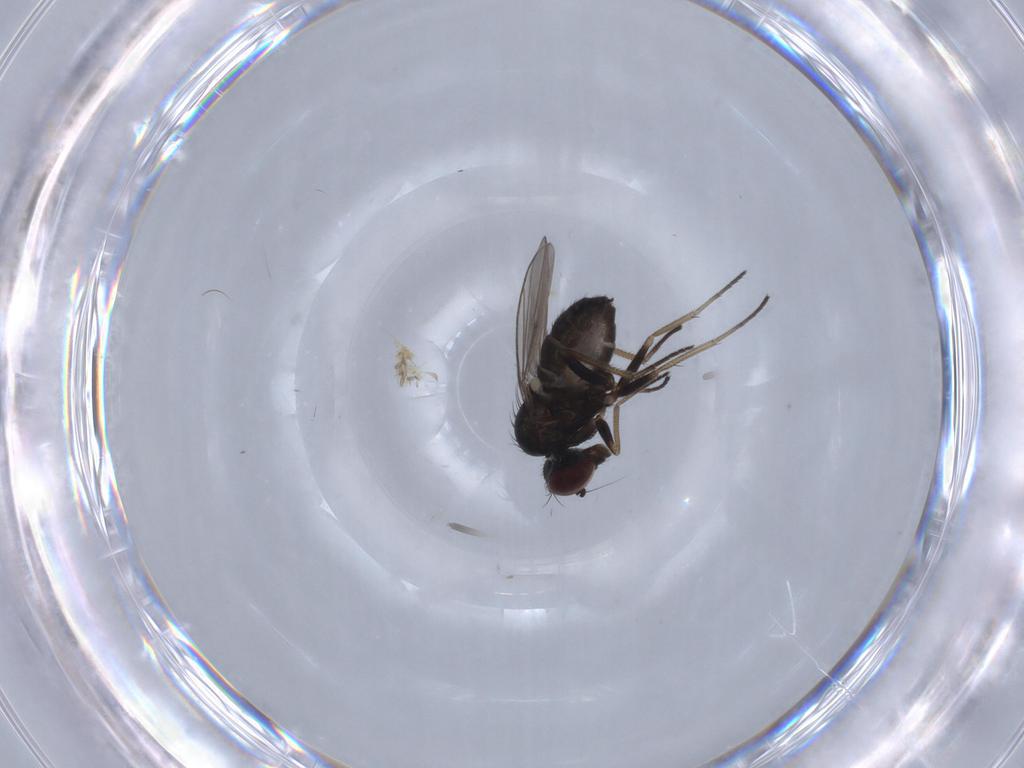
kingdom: Animalia
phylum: Arthropoda
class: Insecta
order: Diptera
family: Dolichopodidae
